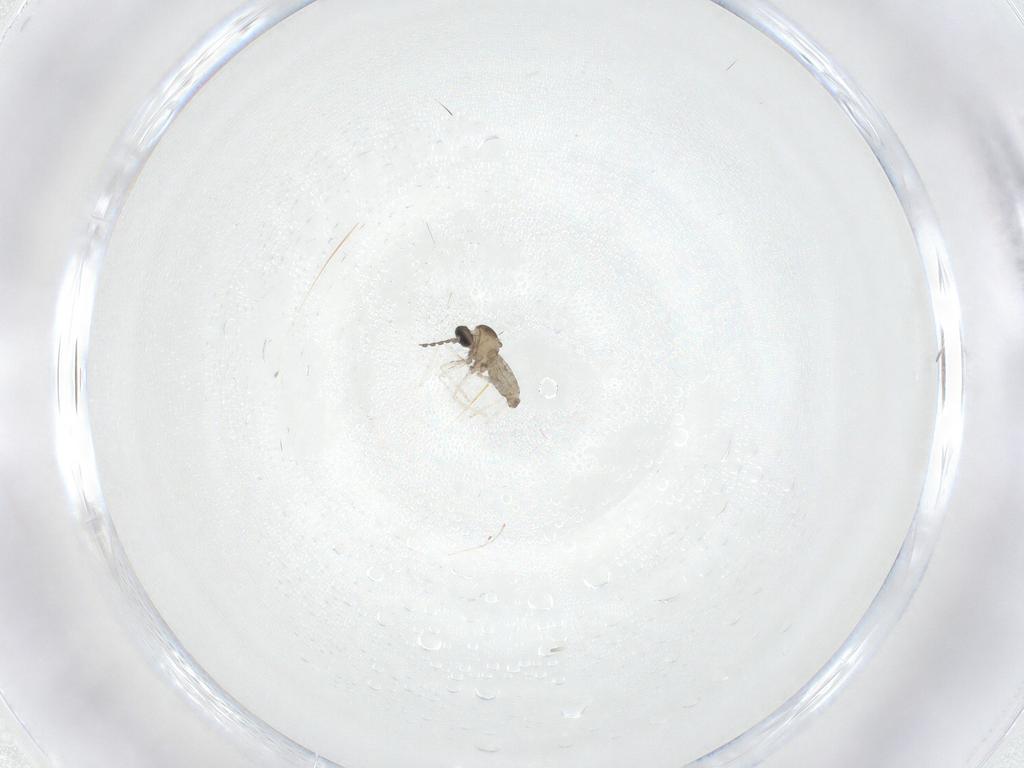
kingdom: Animalia
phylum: Arthropoda
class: Insecta
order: Diptera
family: Cecidomyiidae
